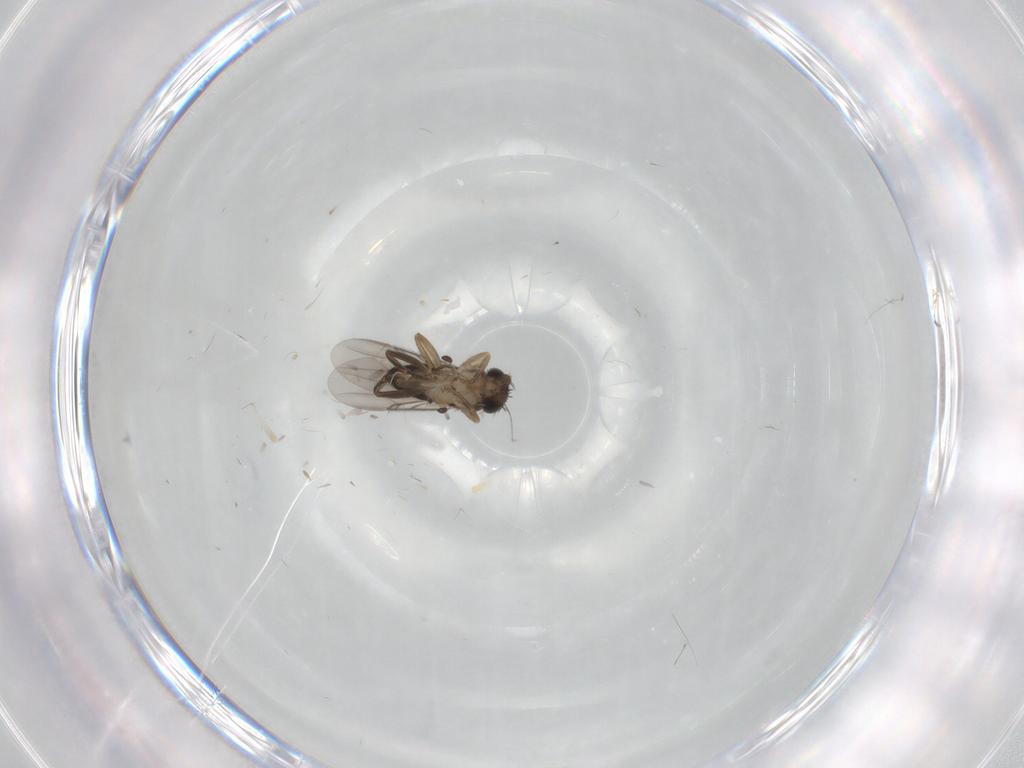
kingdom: Animalia
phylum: Arthropoda
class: Insecta
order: Diptera
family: Phoridae
